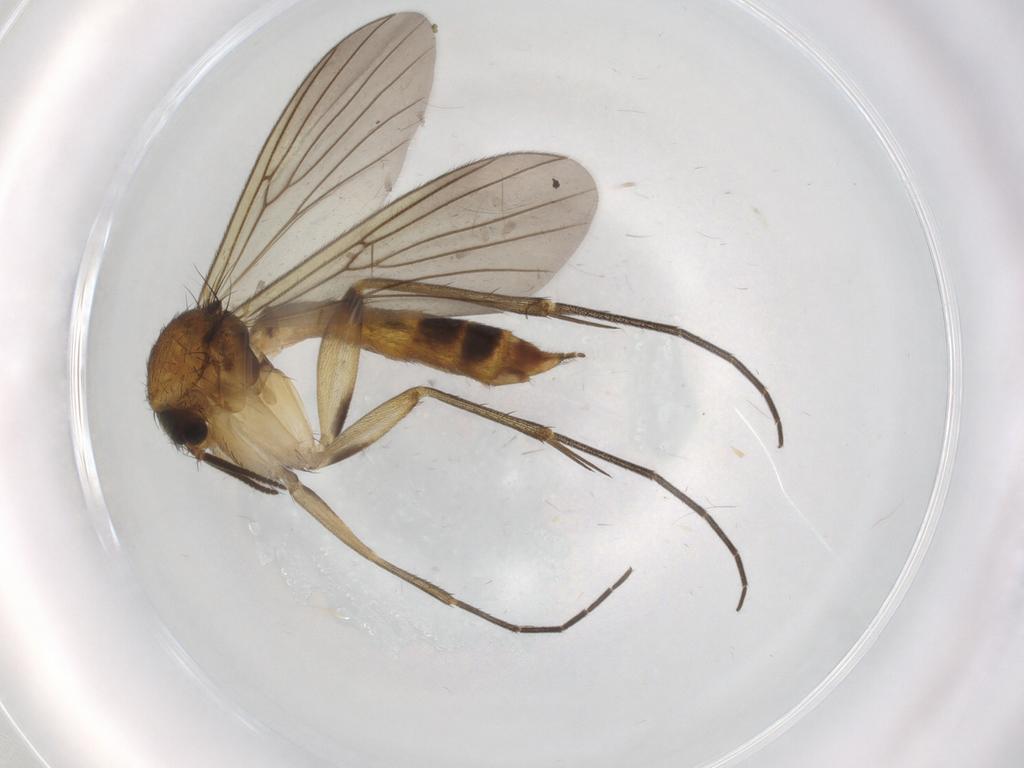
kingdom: Animalia
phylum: Arthropoda
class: Insecta
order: Diptera
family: Mycetophilidae
